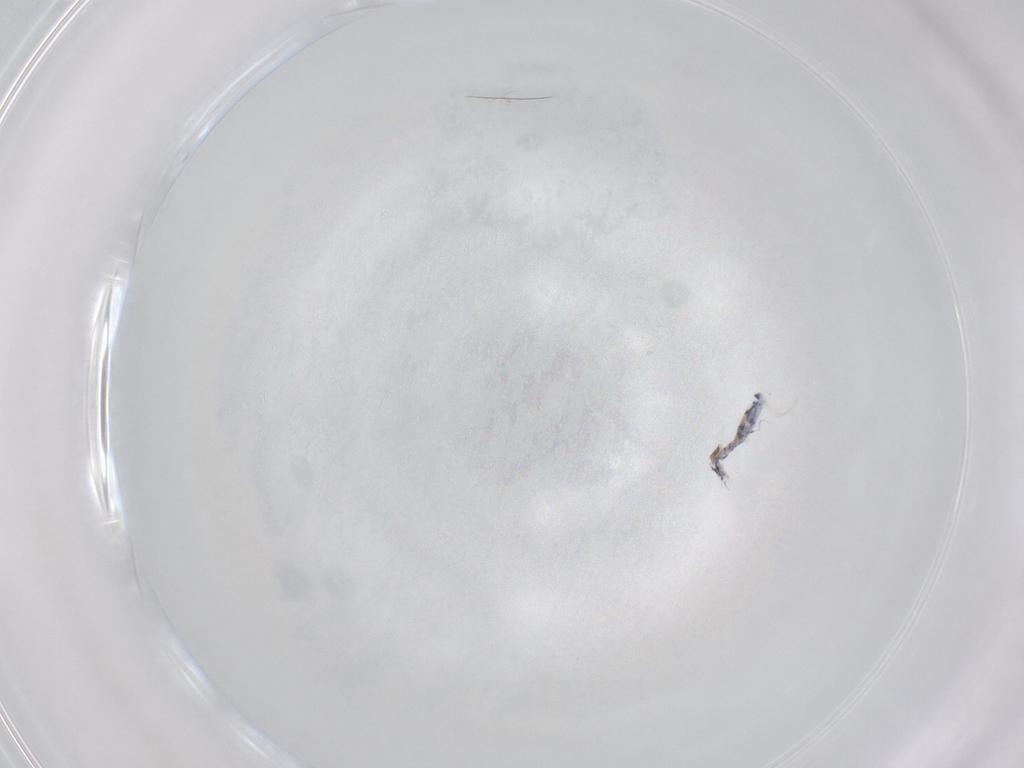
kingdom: Animalia
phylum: Arthropoda
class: Collembola
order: Entomobryomorpha
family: Entomobryidae
